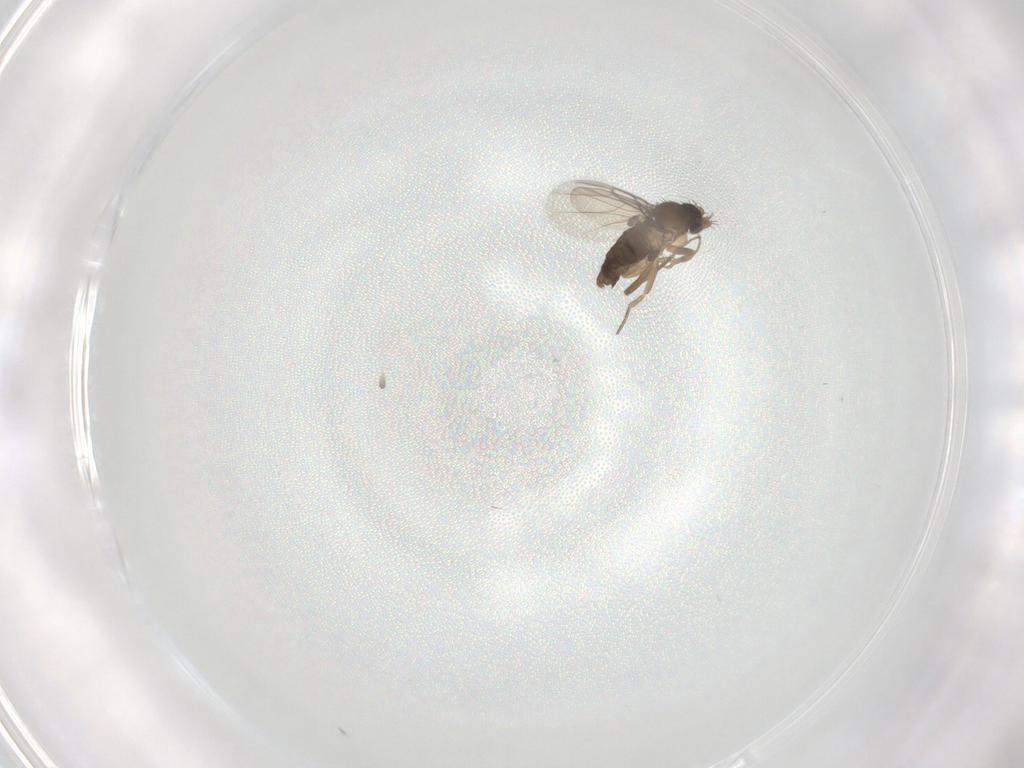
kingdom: Animalia
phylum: Arthropoda
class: Insecta
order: Diptera
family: Phoridae
